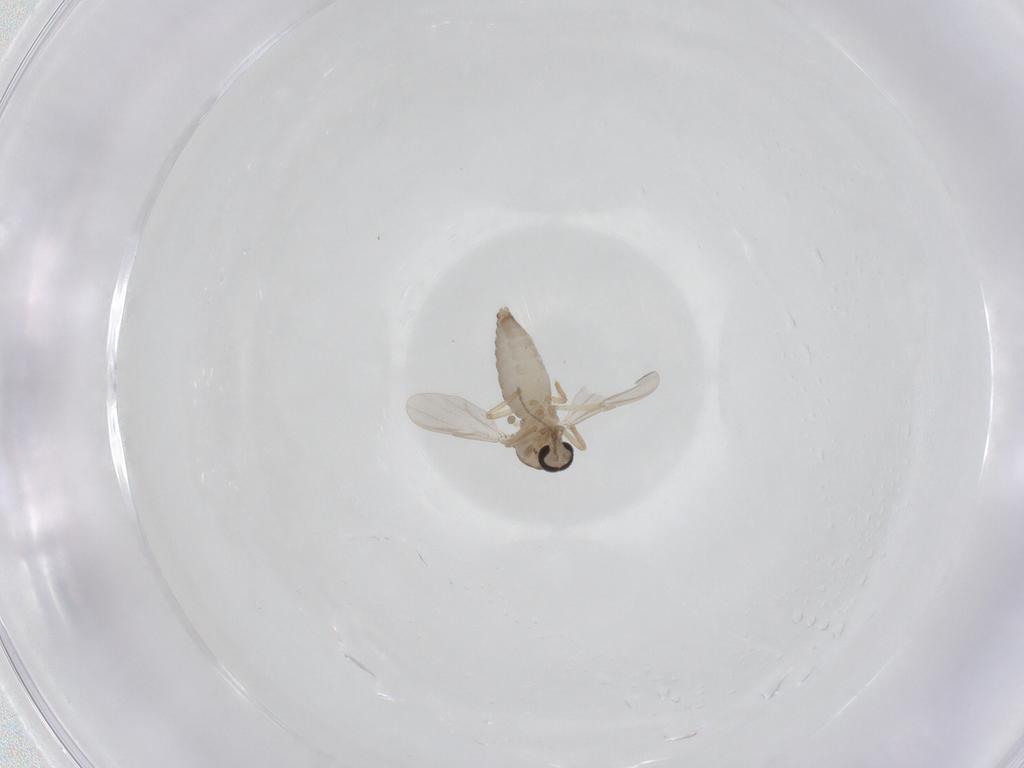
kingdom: Animalia
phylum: Arthropoda
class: Insecta
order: Diptera
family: Ceratopogonidae
